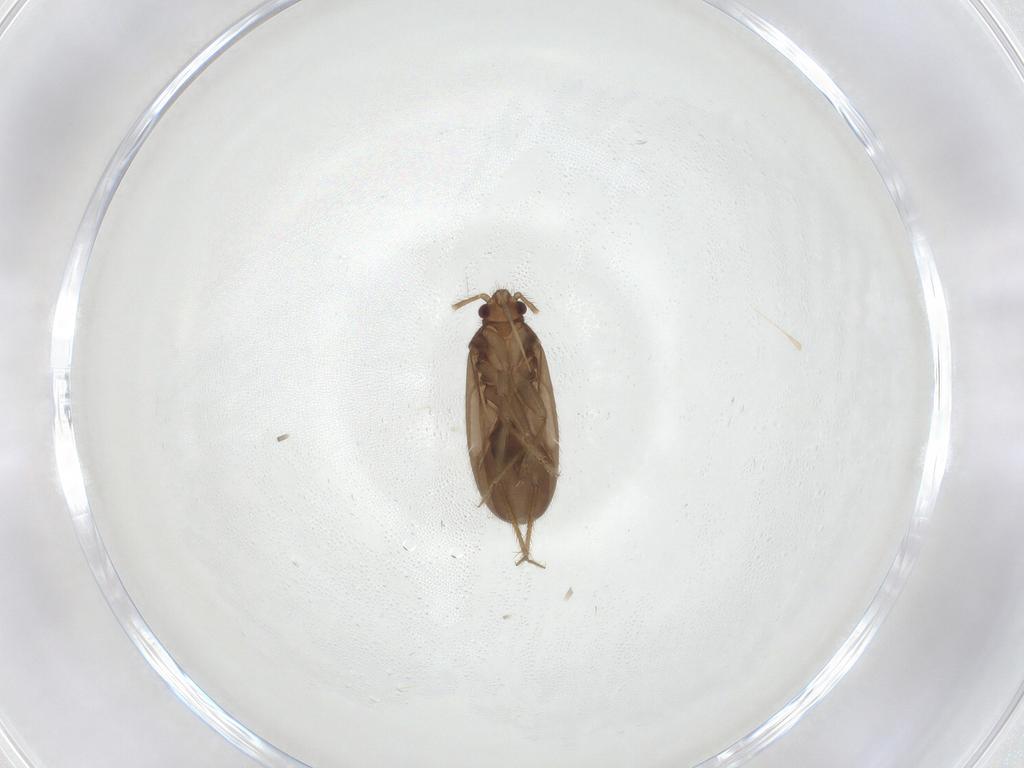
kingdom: Animalia
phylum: Arthropoda
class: Insecta
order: Hemiptera
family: Ceratocombidae
